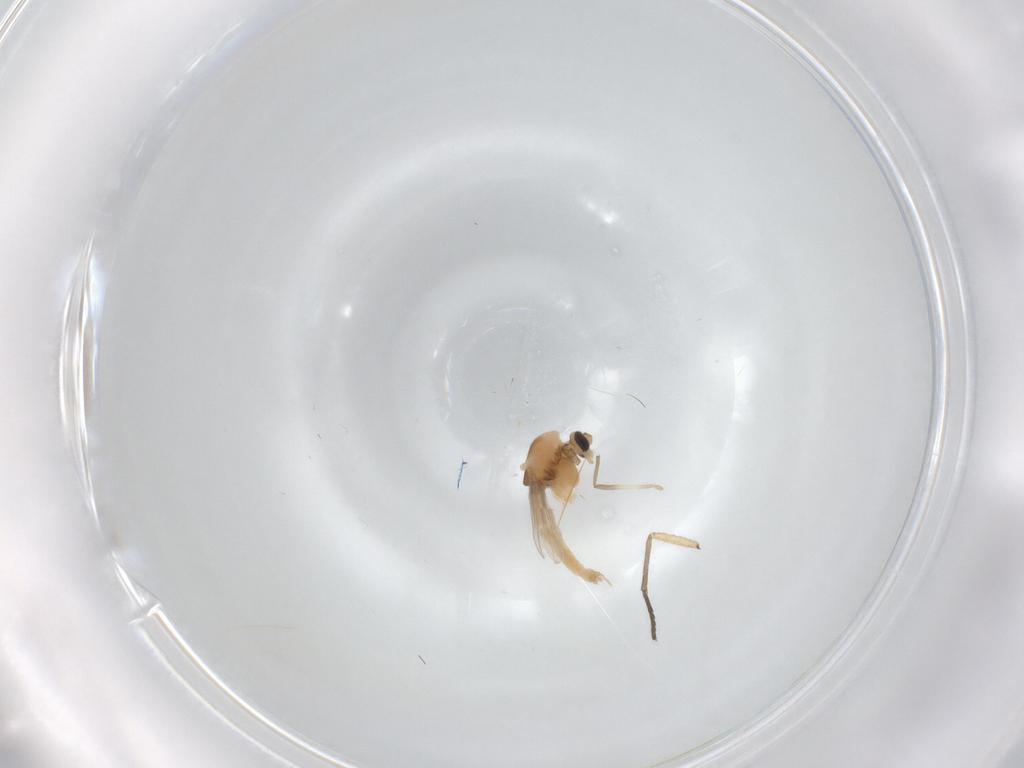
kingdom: Animalia
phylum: Arthropoda
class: Insecta
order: Diptera
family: Chironomidae
